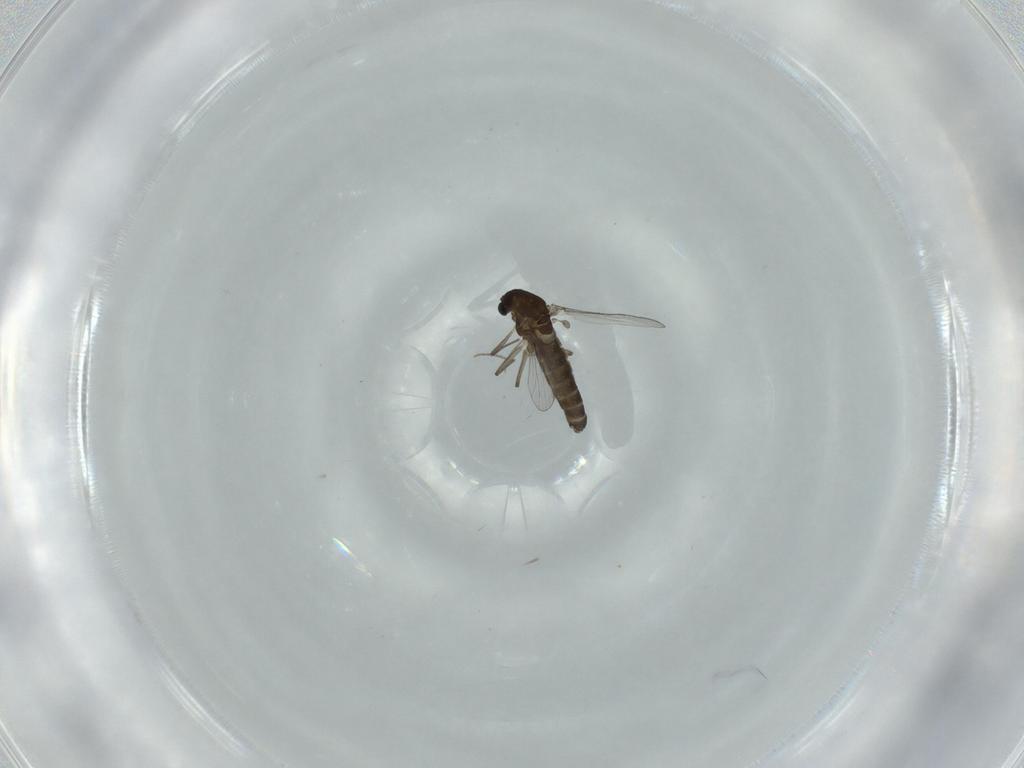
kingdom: Animalia
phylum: Arthropoda
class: Insecta
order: Diptera
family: Chironomidae
